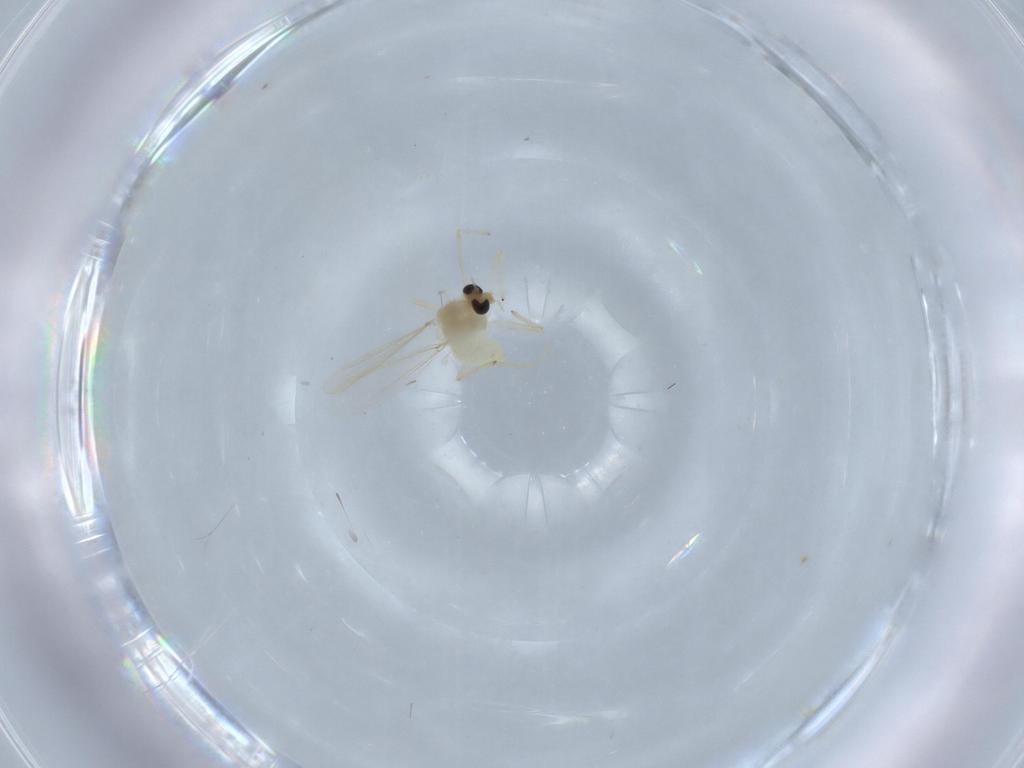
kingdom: Animalia
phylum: Arthropoda
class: Insecta
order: Diptera
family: Chironomidae
